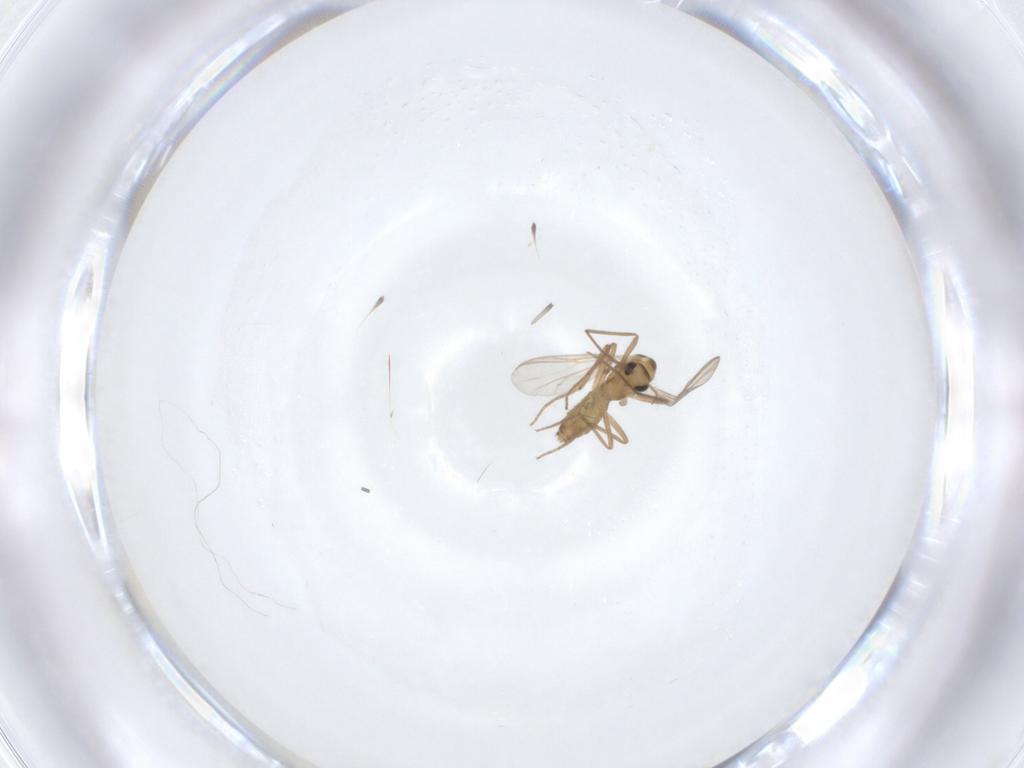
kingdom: Animalia
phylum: Arthropoda
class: Insecta
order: Diptera
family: Chironomidae
